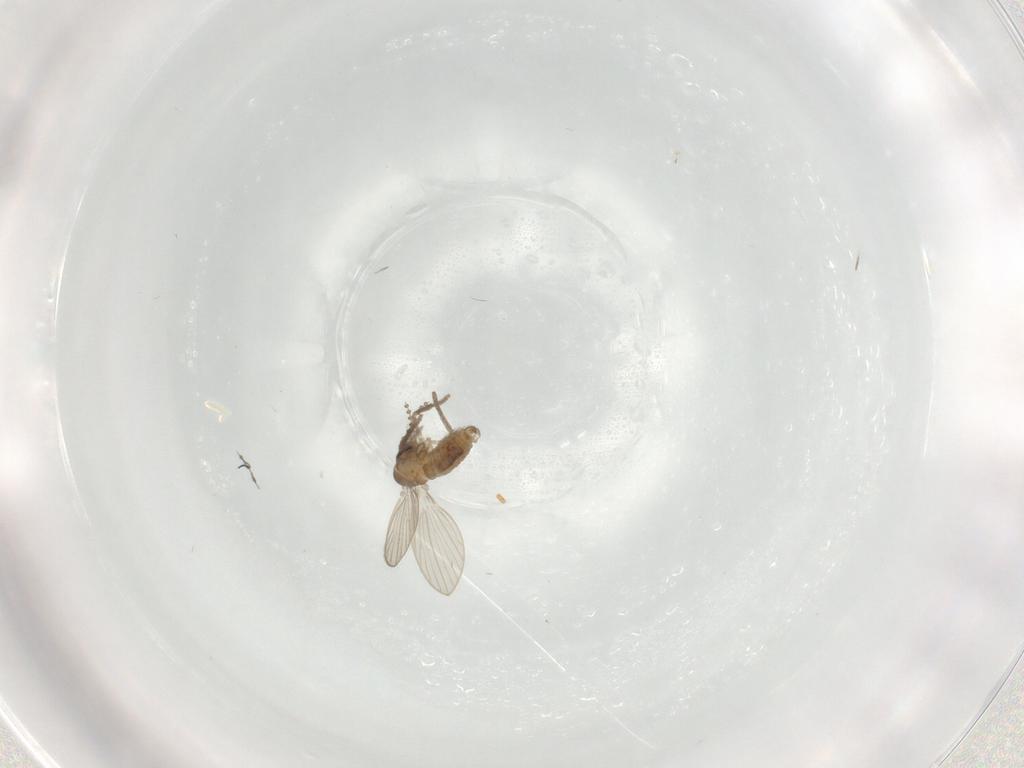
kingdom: Animalia
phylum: Arthropoda
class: Insecta
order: Diptera
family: Psychodidae
